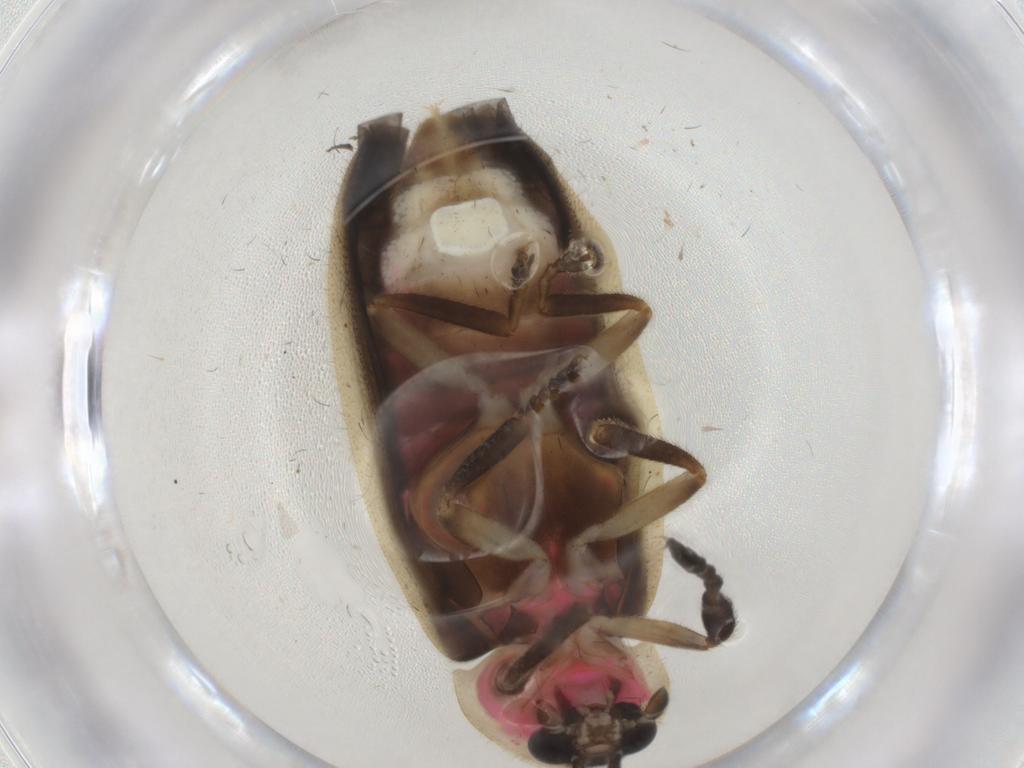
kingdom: Animalia
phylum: Arthropoda
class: Insecta
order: Coleoptera
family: Lampyridae
